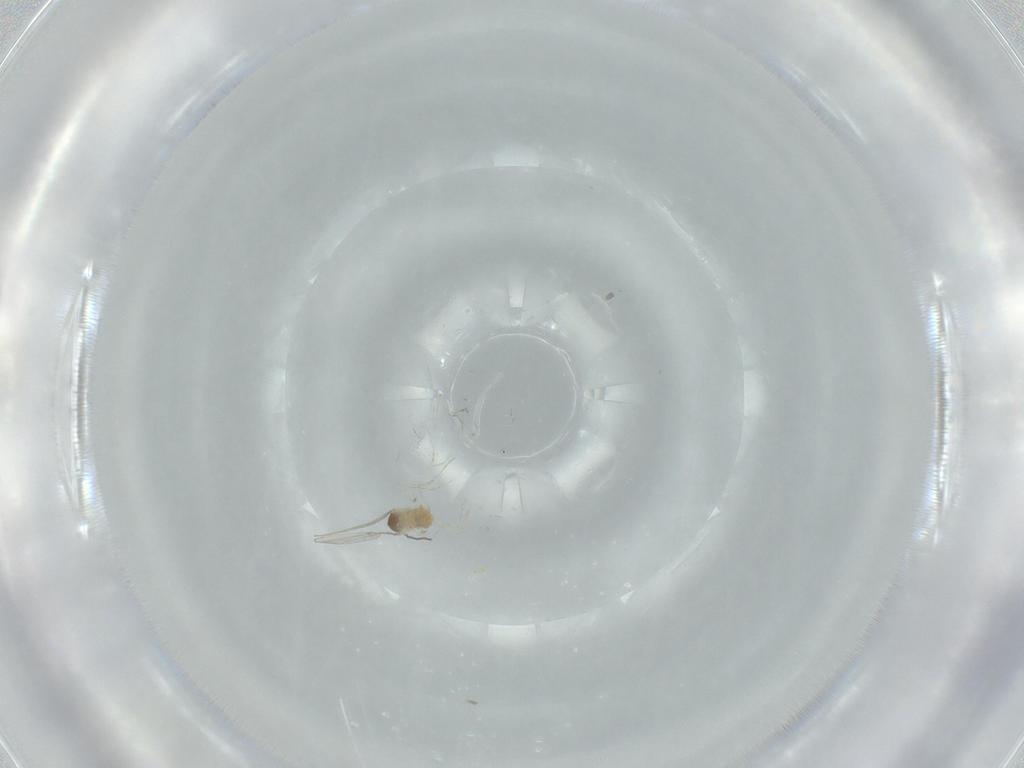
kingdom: Animalia
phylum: Arthropoda
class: Insecta
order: Diptera
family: Cecidomyiidae
